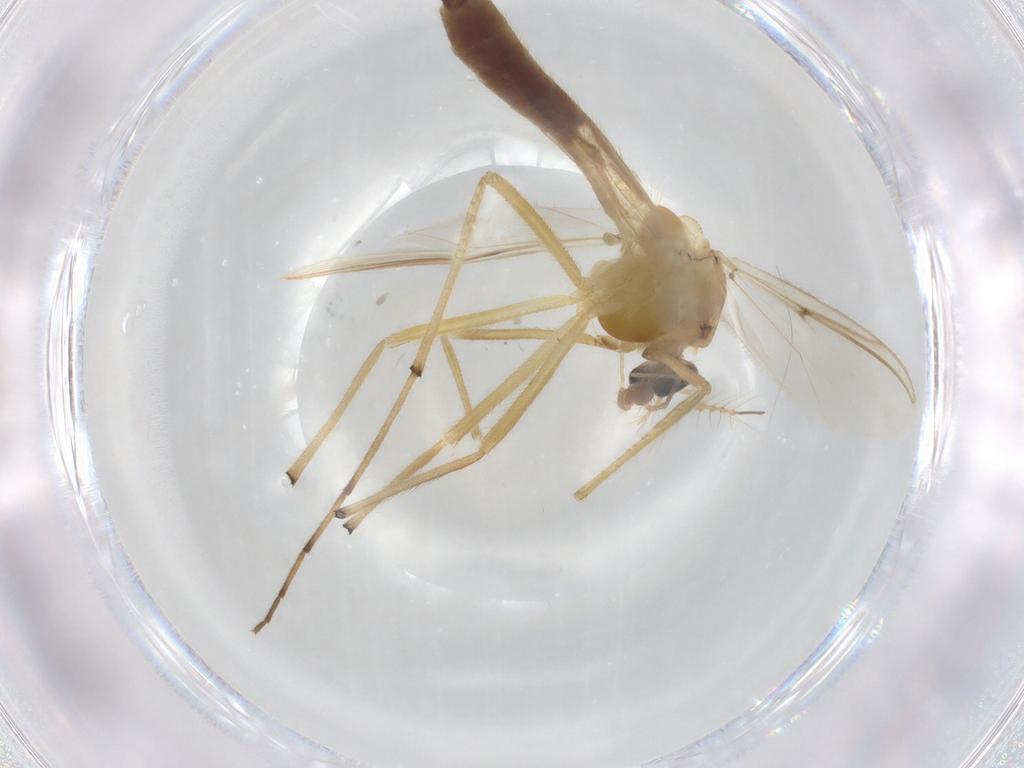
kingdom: Animalia
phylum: Arthropoda
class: Insecta
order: Diptera
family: Chironomidae
